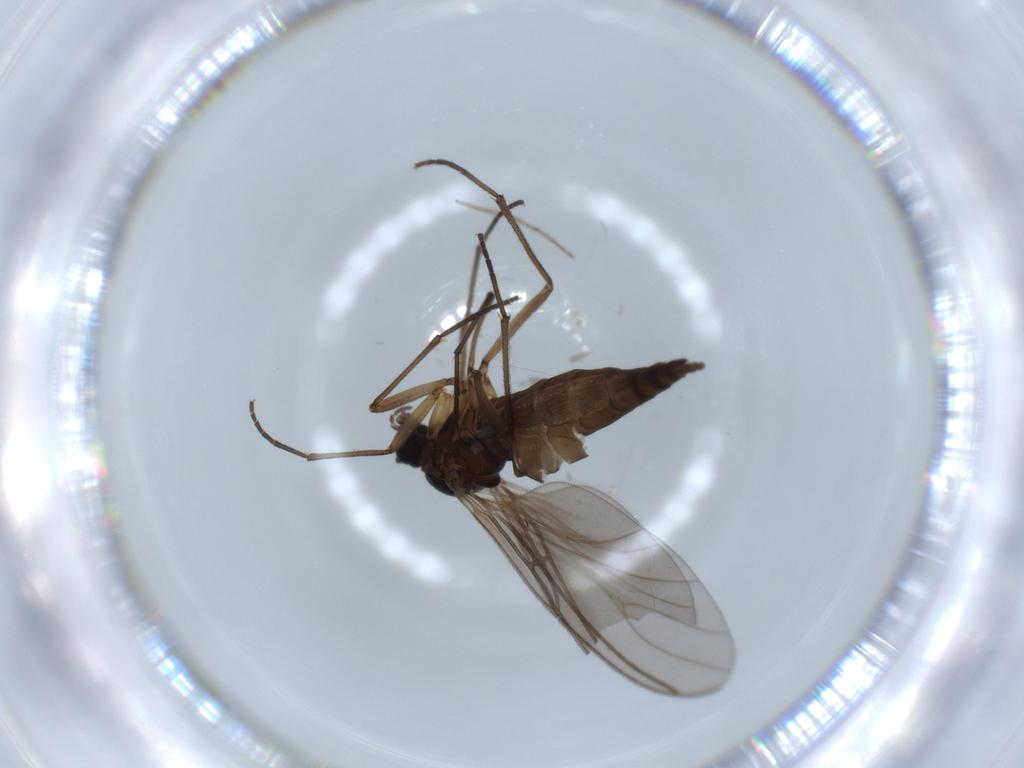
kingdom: Animalia
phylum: Arthropoda
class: Insecta
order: Diptera
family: Sciaridae
